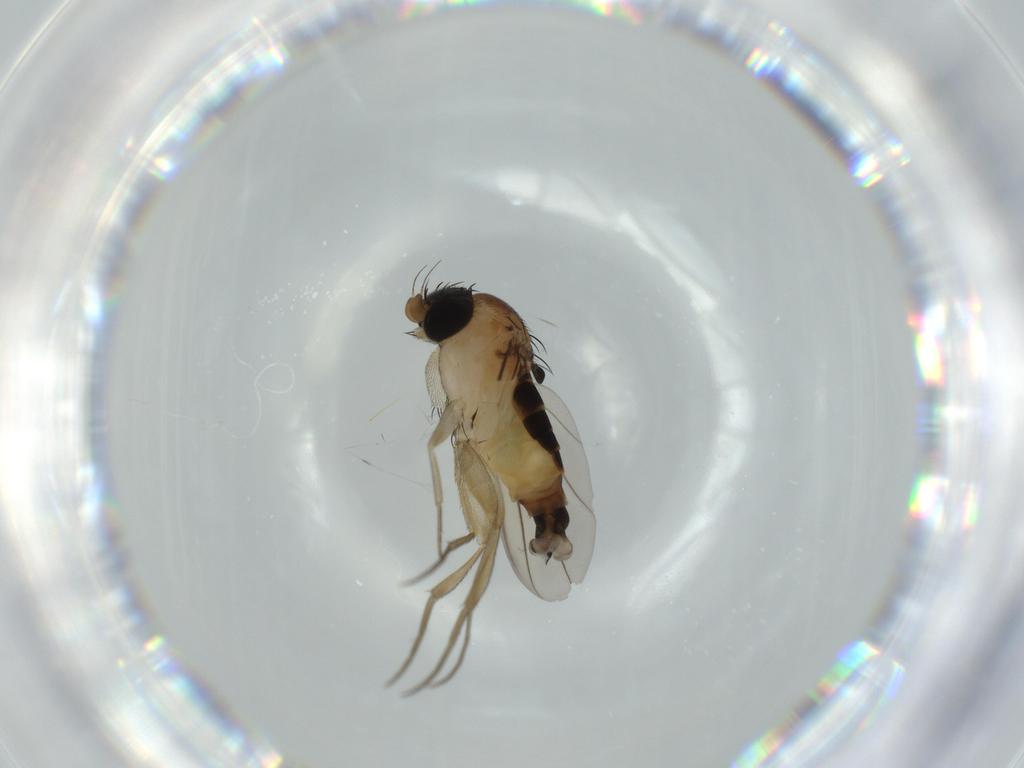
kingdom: Animalia
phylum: Arthropoda
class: Insecta
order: Diptera
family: Phoridae
